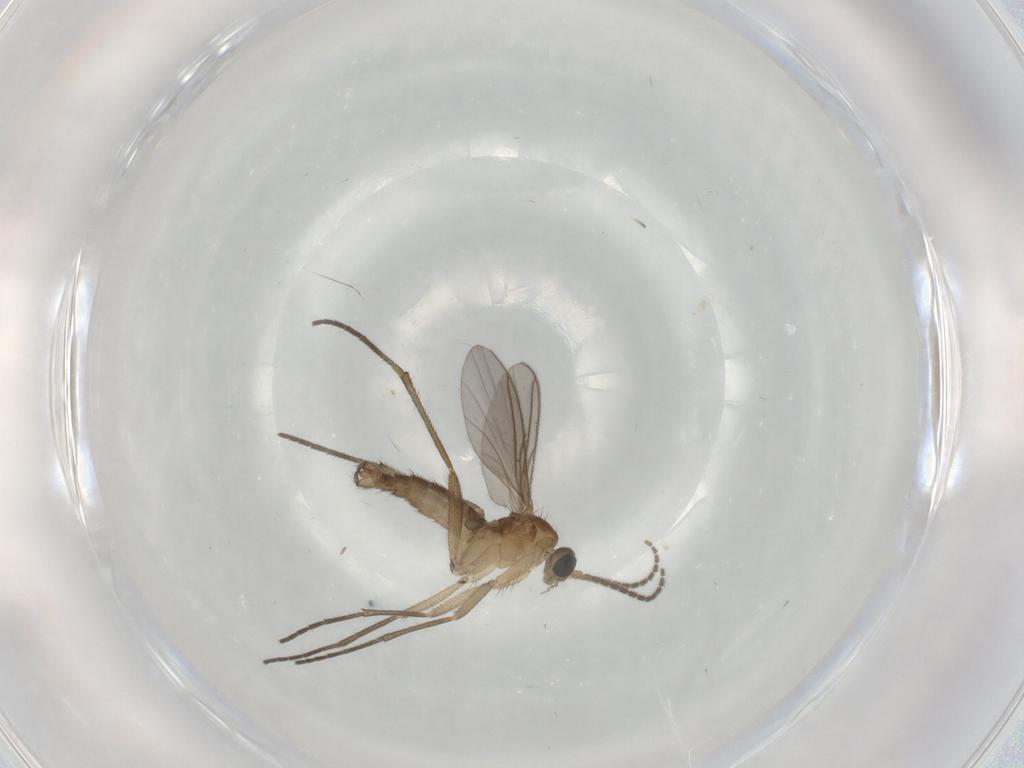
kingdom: Animalia
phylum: Arthropoda
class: Insecta
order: Diptera
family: Sciaridae
